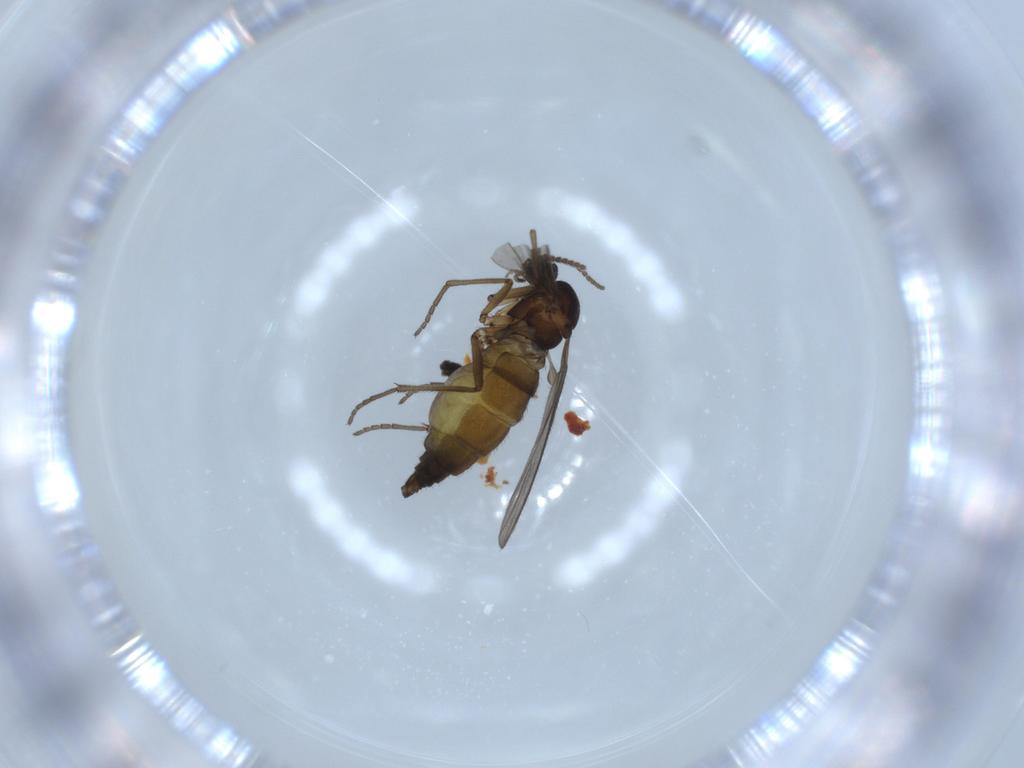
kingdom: Animalia
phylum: Arthropoda
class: Insecta
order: Diptera
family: Sciaridae
